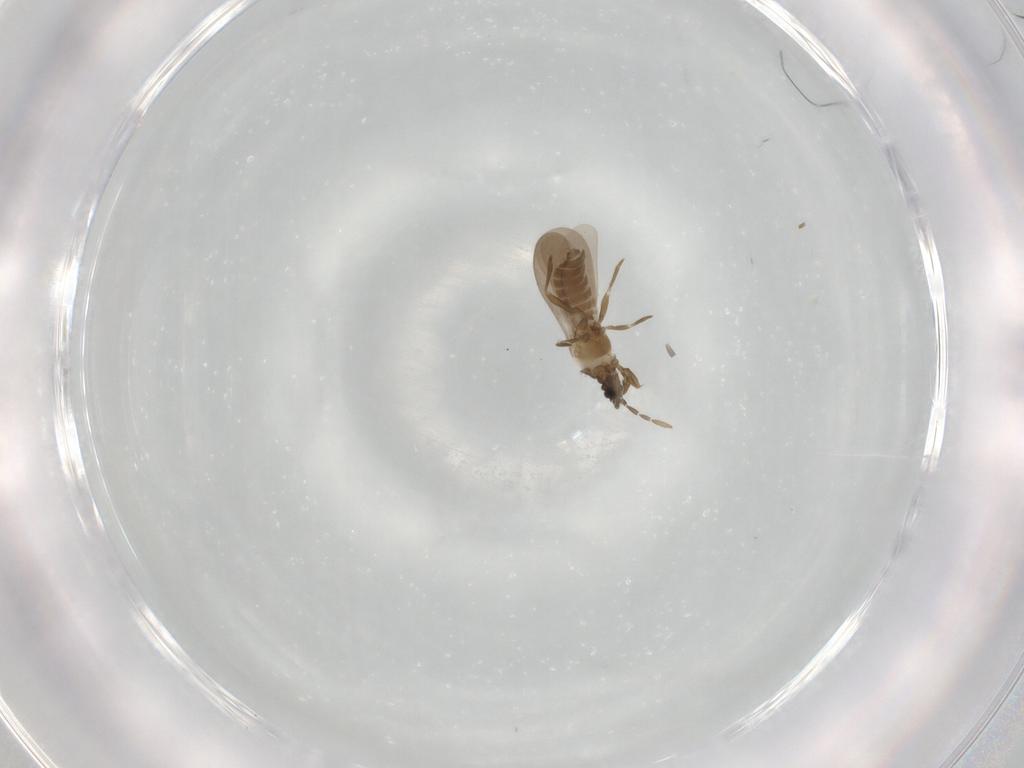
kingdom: Animalia
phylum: Arthropoda
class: Insecta
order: Hemiptera
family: Enicocephalidae
